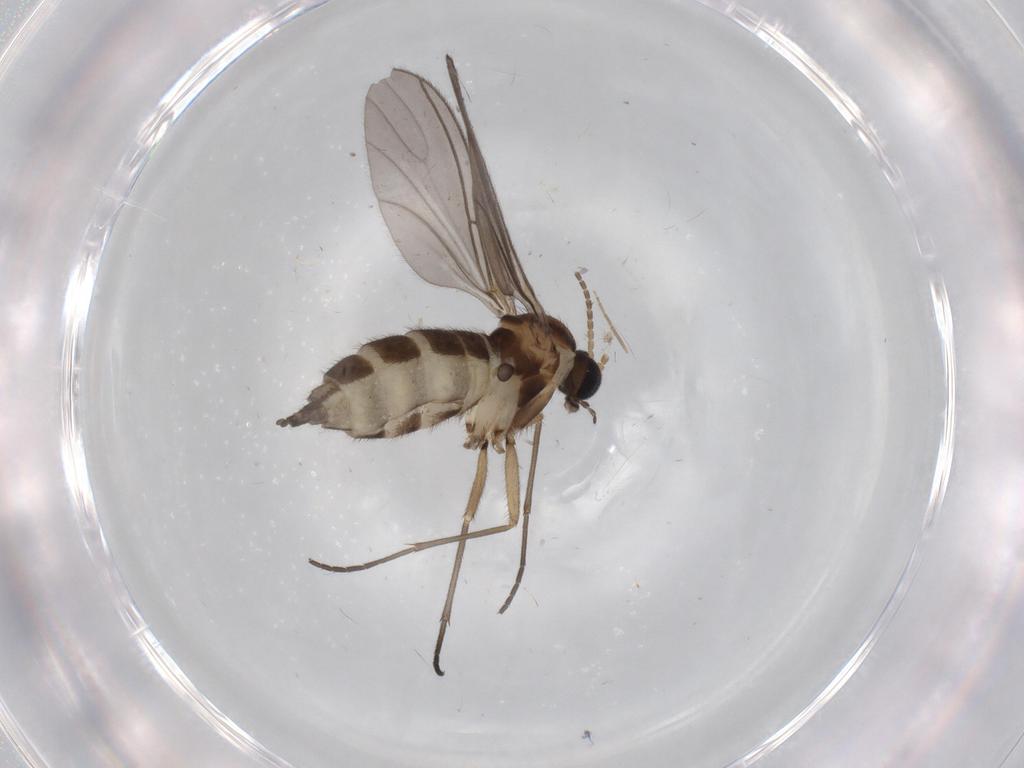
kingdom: Animalia
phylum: Arthropoda
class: Insecta
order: Diptera
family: Sciaridae
